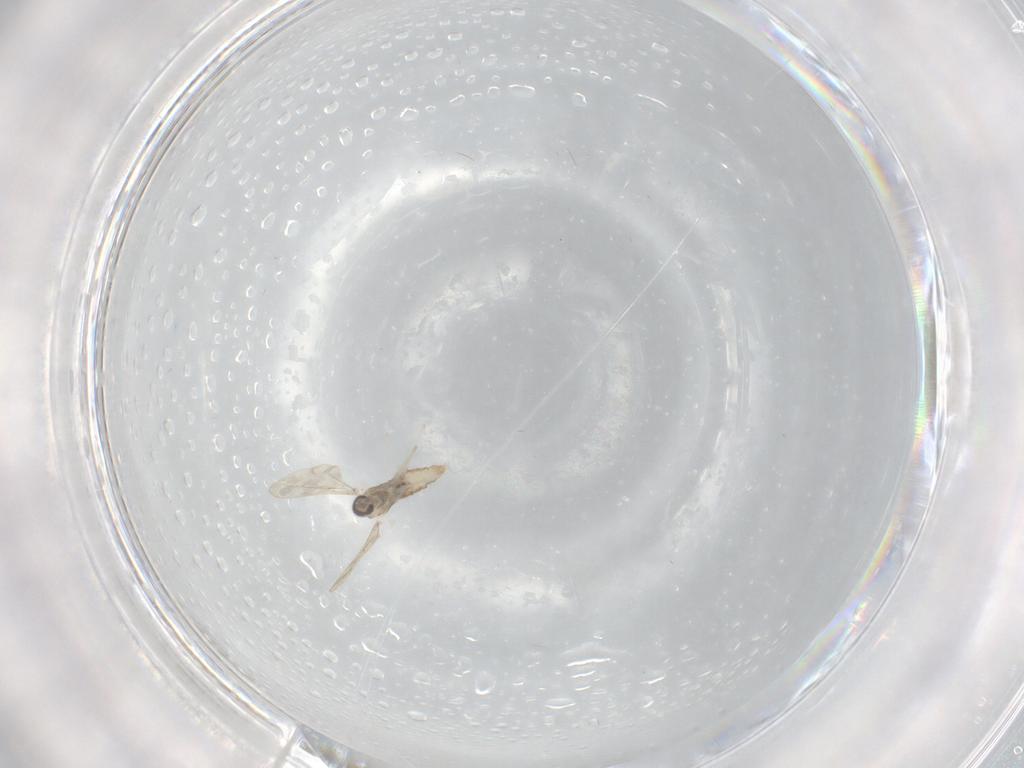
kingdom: Animalia
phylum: Arthropoda
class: Insecta
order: Diptera
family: Cecidomyiidae
